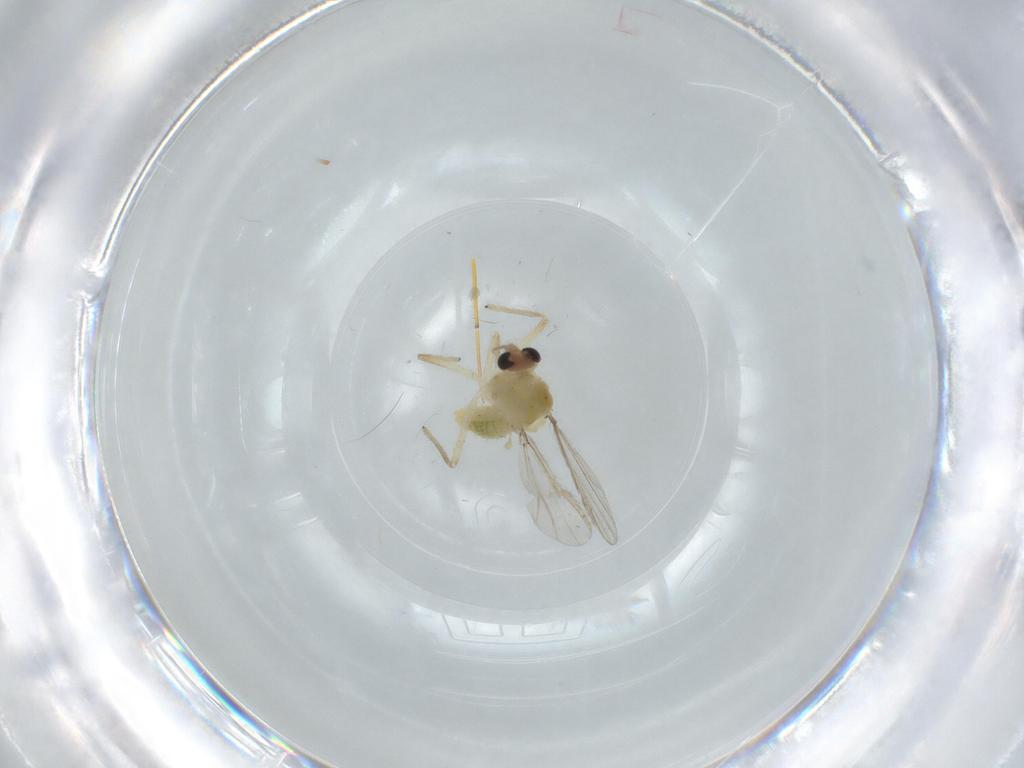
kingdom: Animalia
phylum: Arthropoda
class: Insecta
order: Diptera
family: Chironomidae
